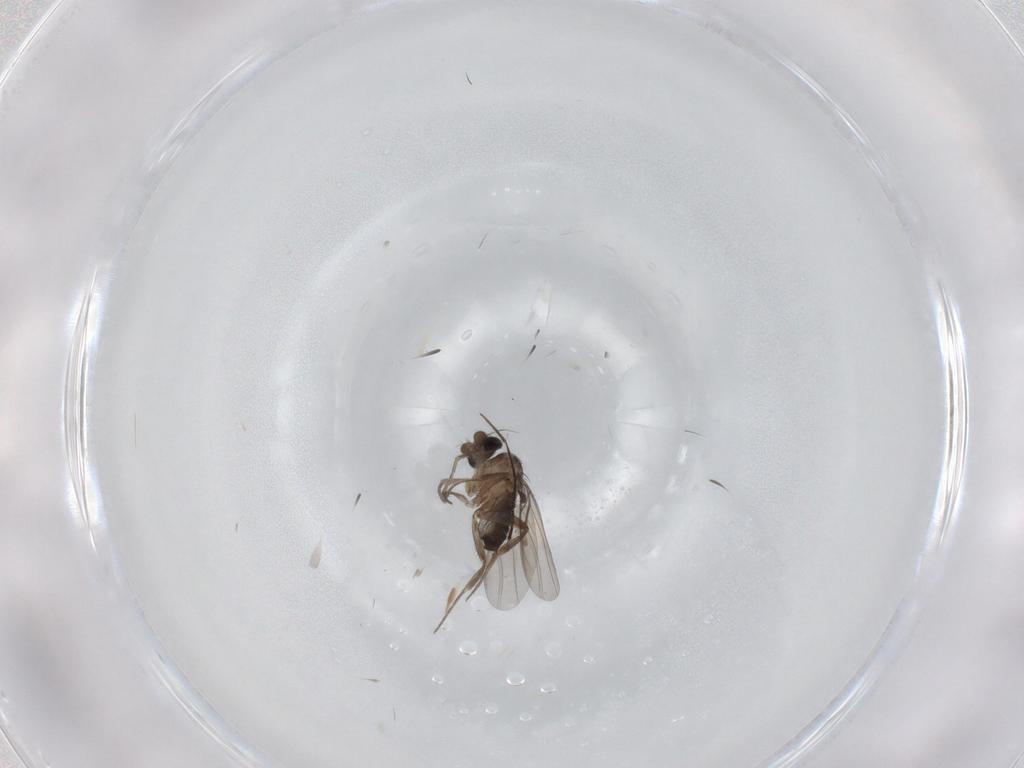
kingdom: Animalia
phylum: Arthropoda
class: Insecta
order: Diptera
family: Phoridae
